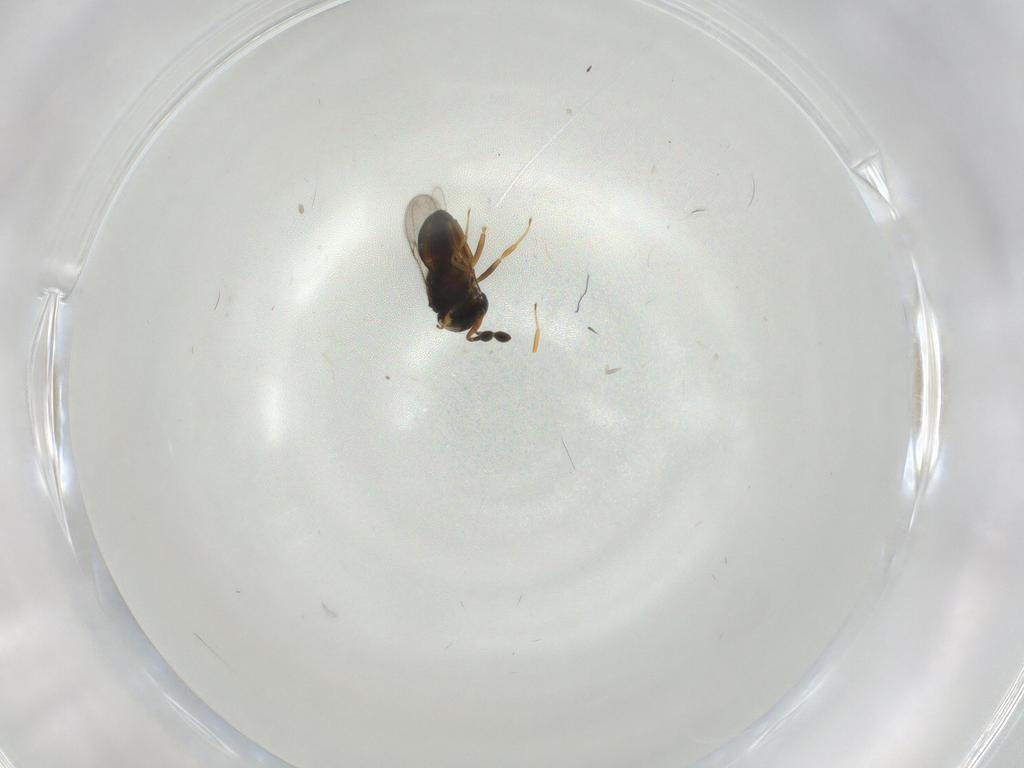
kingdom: Animalia
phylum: Arthropoda
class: Insecta
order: Hymenoptera
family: Scelionidae
